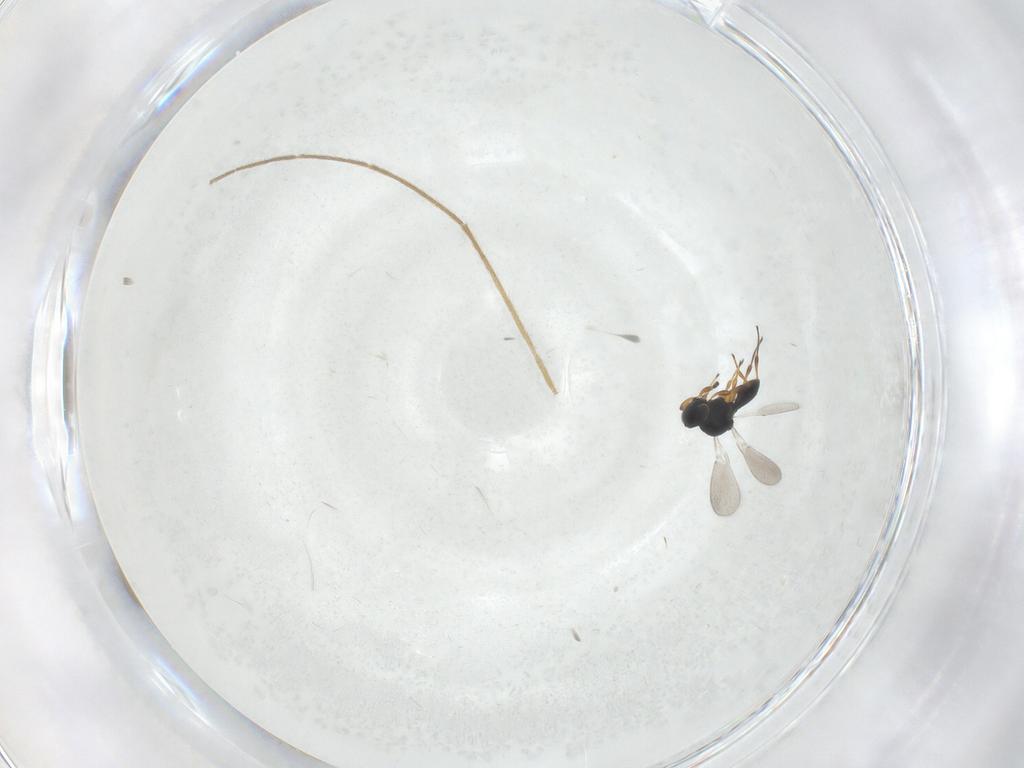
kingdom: Animalia
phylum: Arthropoda
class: Insecta
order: Hymenoptera
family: Platygastridae
